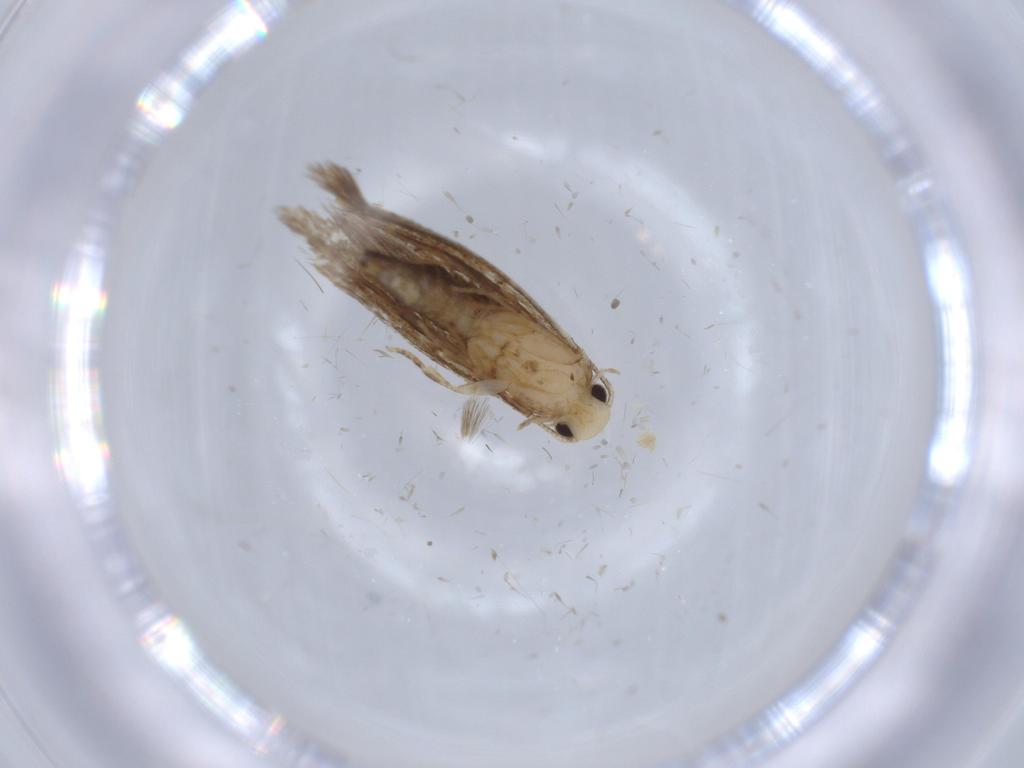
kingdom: Animalia
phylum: Arthropoda
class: Insecta
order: Lepidoptera
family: Tineidae
